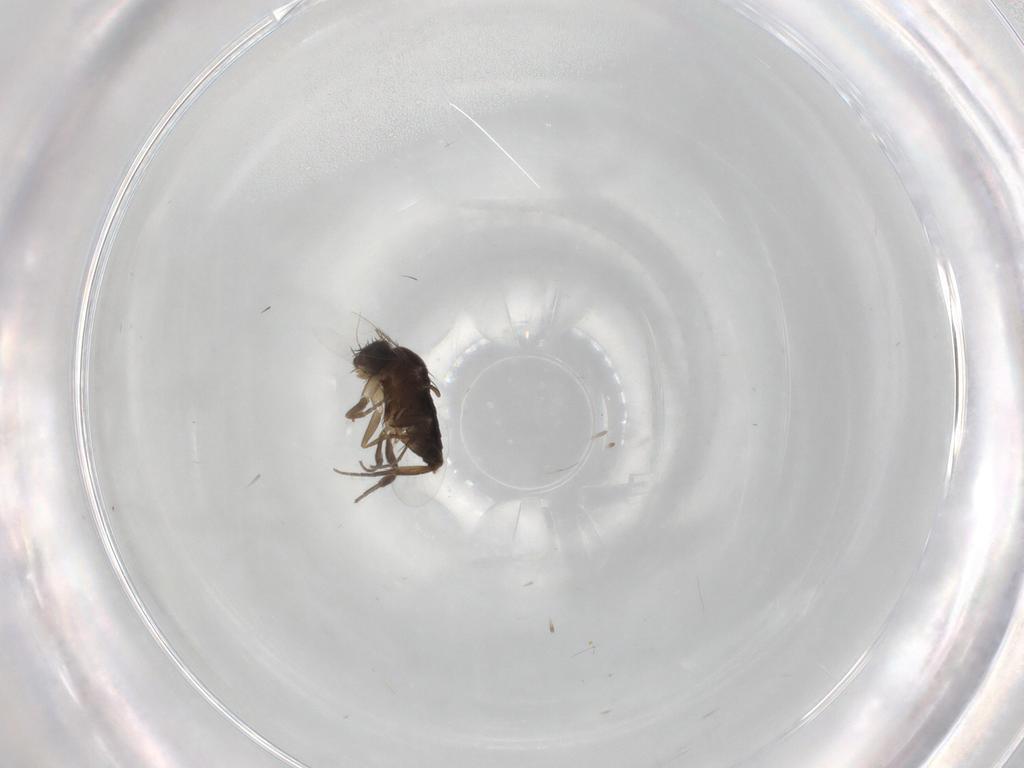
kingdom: Animalia
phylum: Arthropoda
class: Insecta
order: Diptera
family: Phoridae
